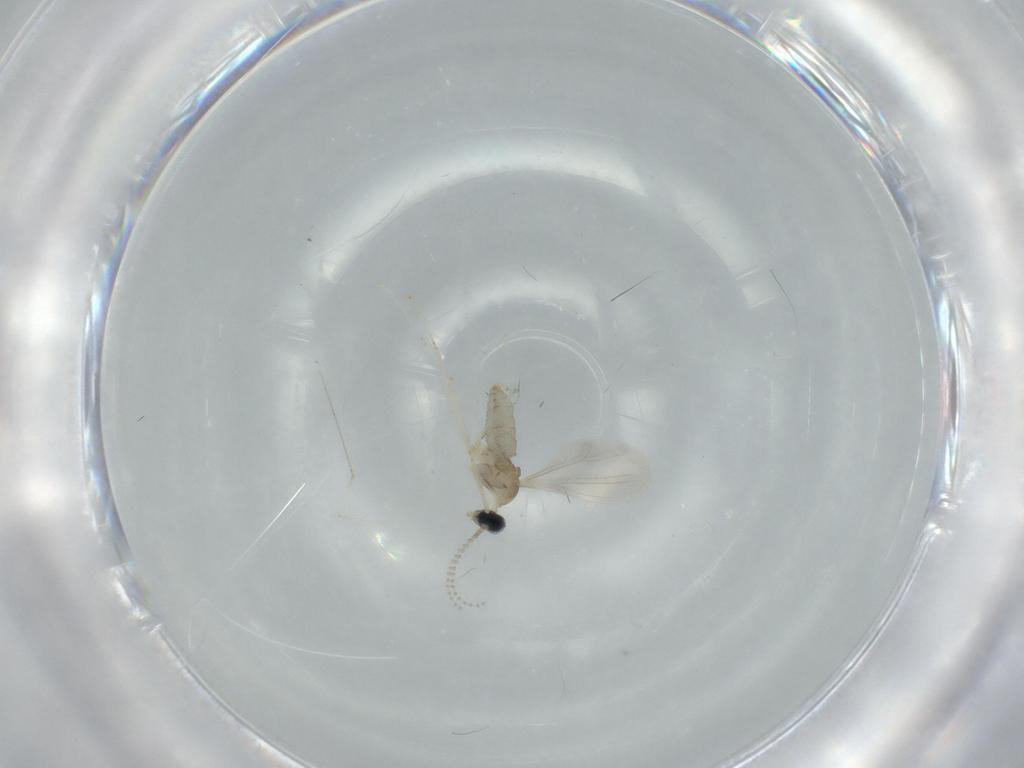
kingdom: Animalia
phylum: Arthropoda
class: Insecta
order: Diptera
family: Cecidomyiidae
